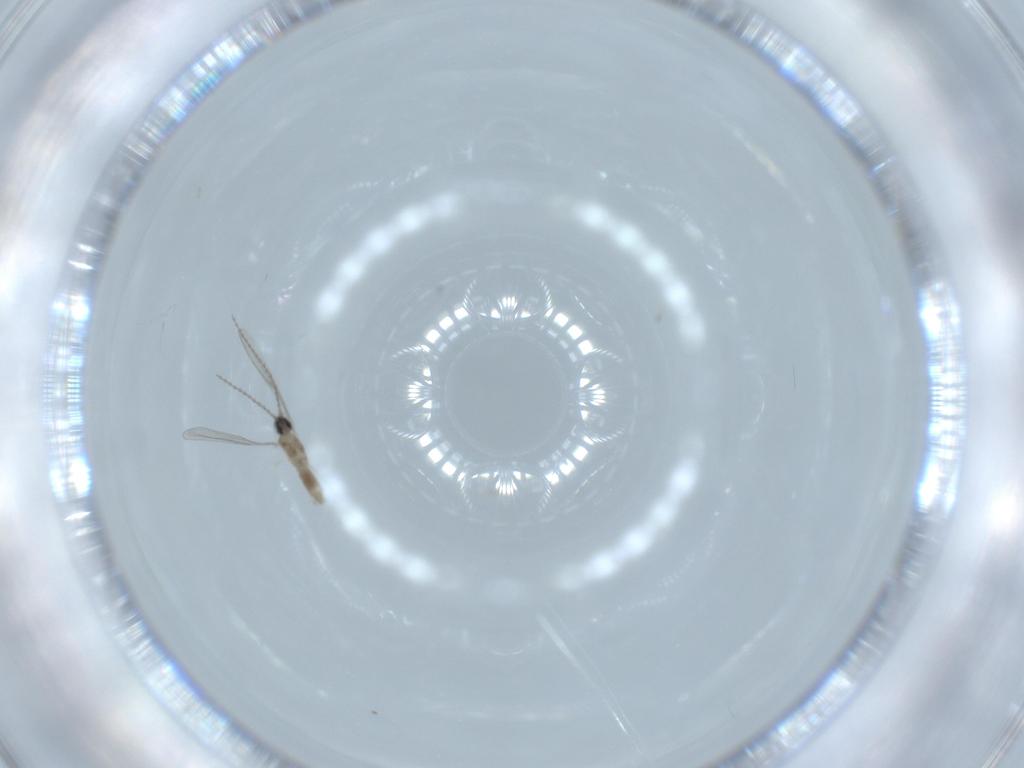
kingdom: Animalia
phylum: Arthropoda
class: Insecta
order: Diptera
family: Cecidomyiidae
